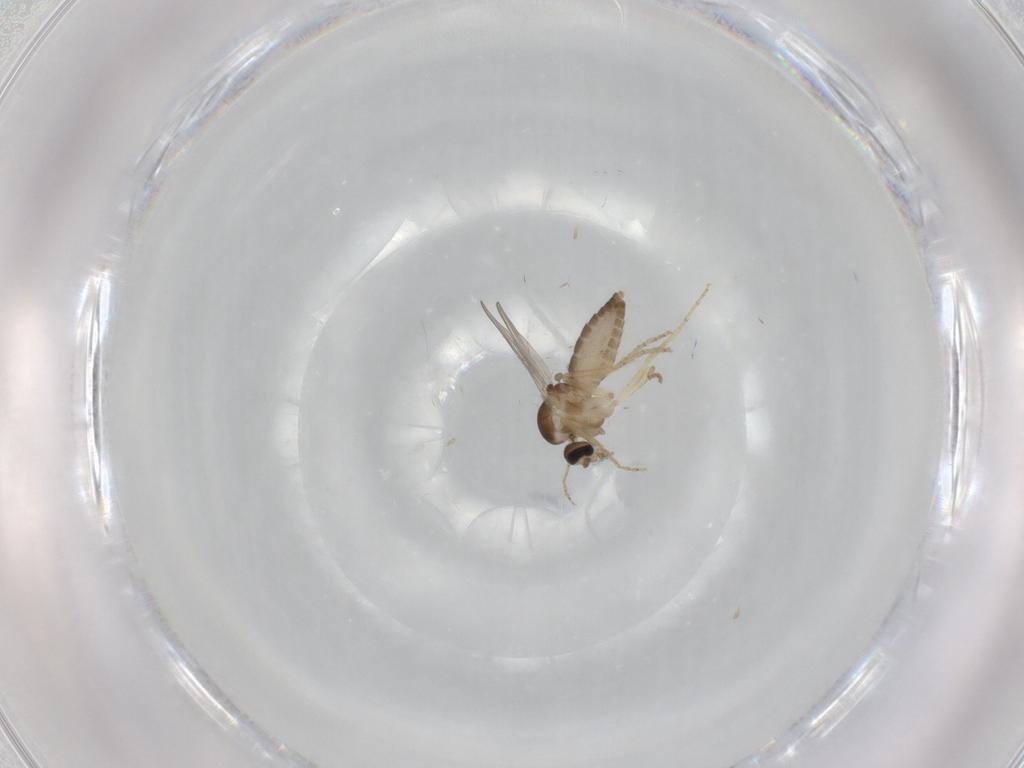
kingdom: Animalia
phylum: Arthropoda
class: Insecta
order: Diptera
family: Ceratopogonidae
